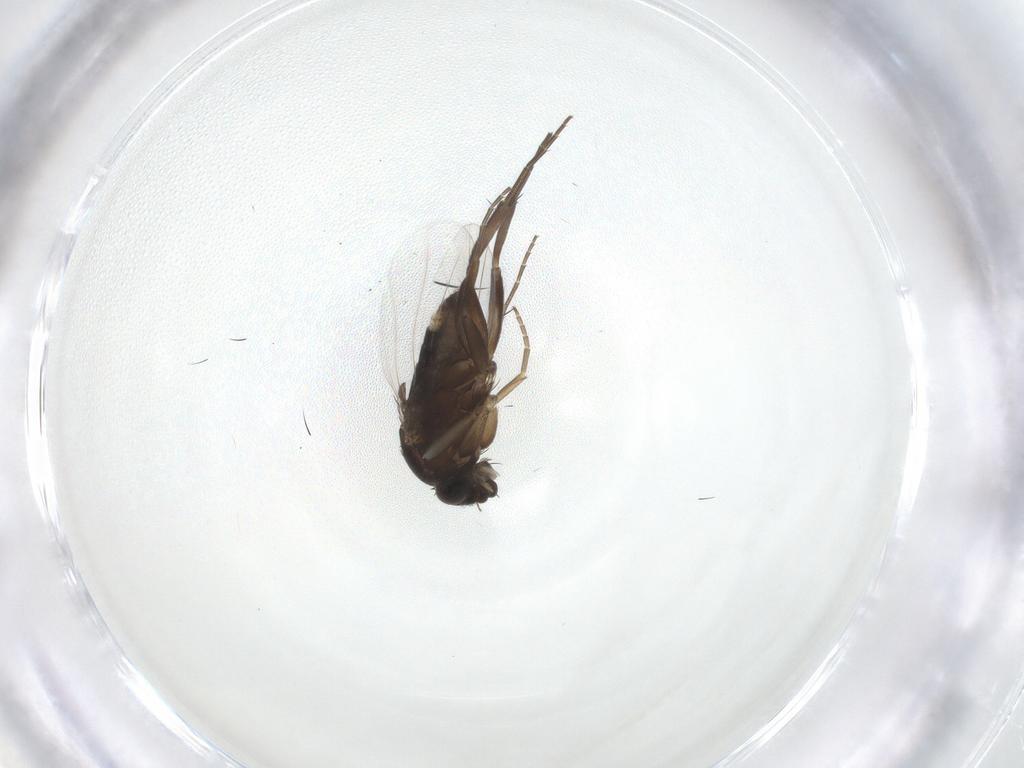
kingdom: Animalia
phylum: Arthropoda
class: Insecta
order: Diptera
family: Phoridae
